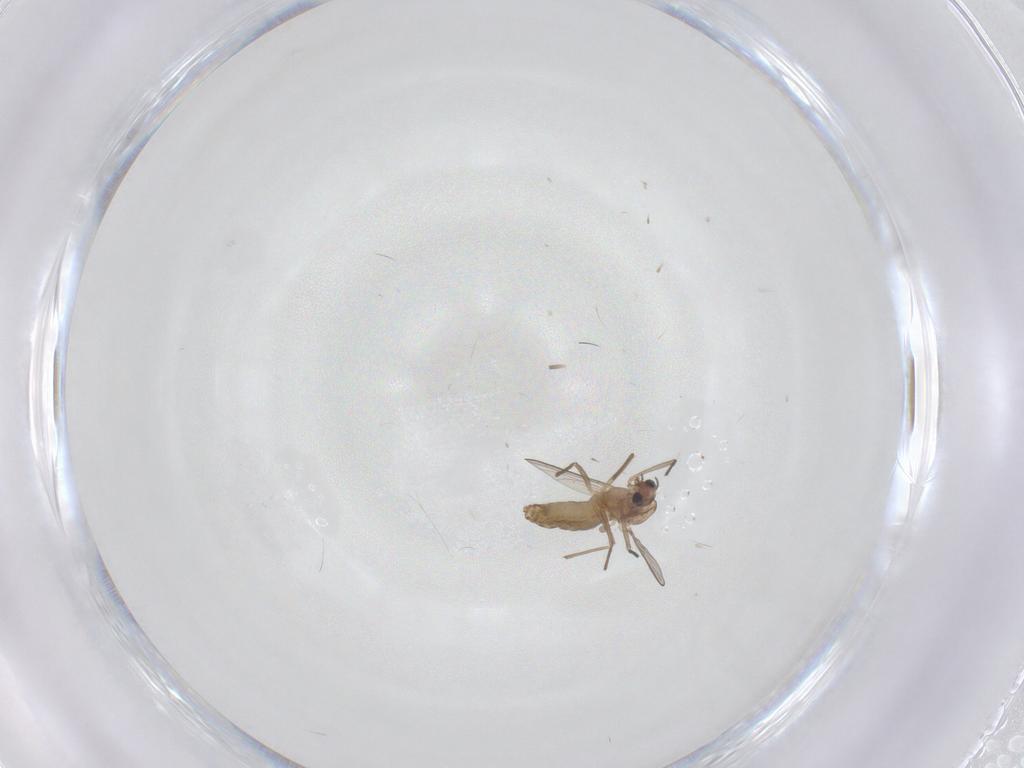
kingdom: Animalia
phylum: Arthropoda
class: Insecta
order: Diptera
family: Chironomidae
